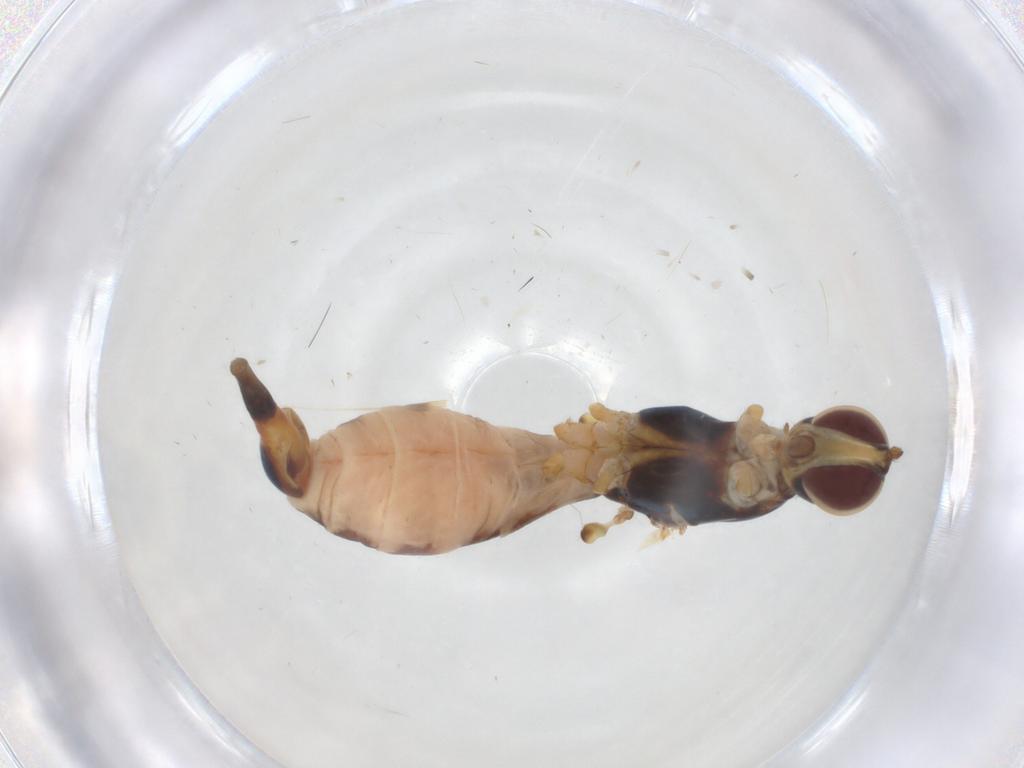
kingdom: Animalia
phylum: Arthropoda
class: Insecta
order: Diptera
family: Micropezidae
